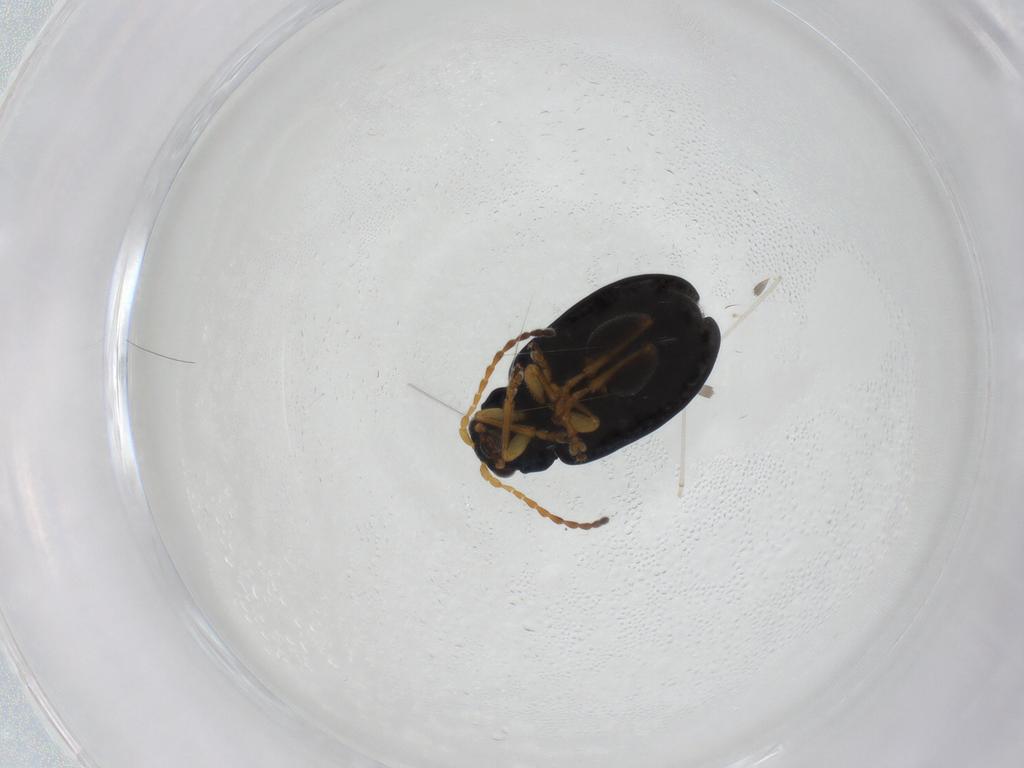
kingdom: Animalia
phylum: Arthropoda
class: Insecta
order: Coleoptera
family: Chrysomelidae
